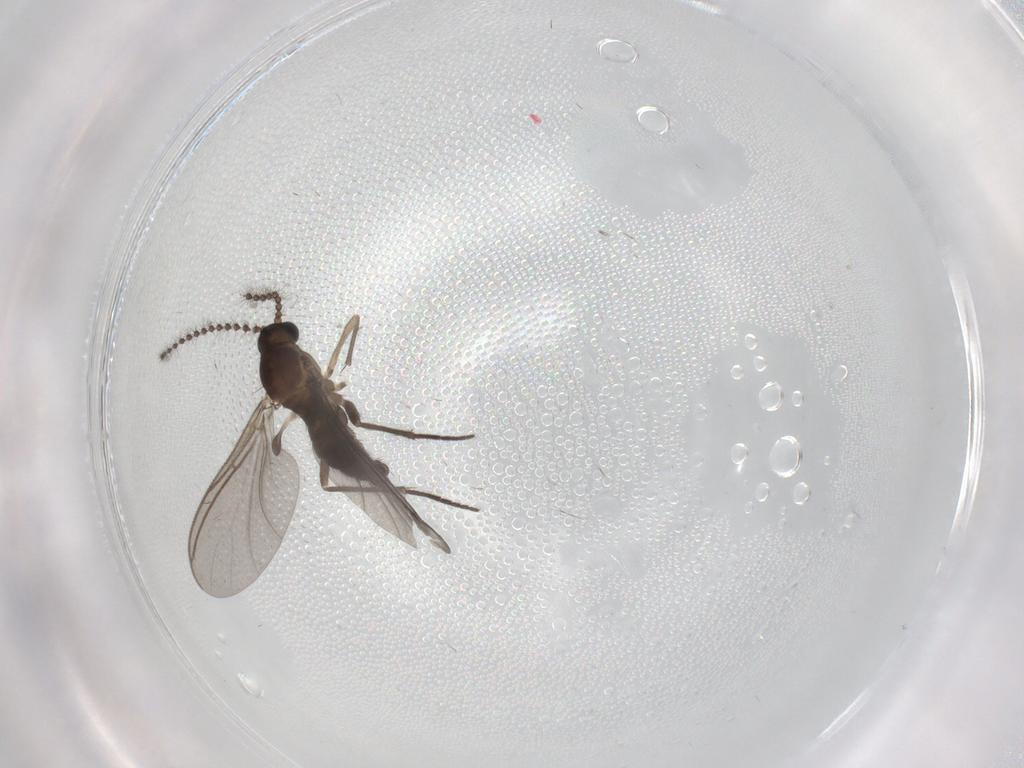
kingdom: Animalia
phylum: Arthropoda
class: Insecta
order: Diptera
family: Sciaridae
